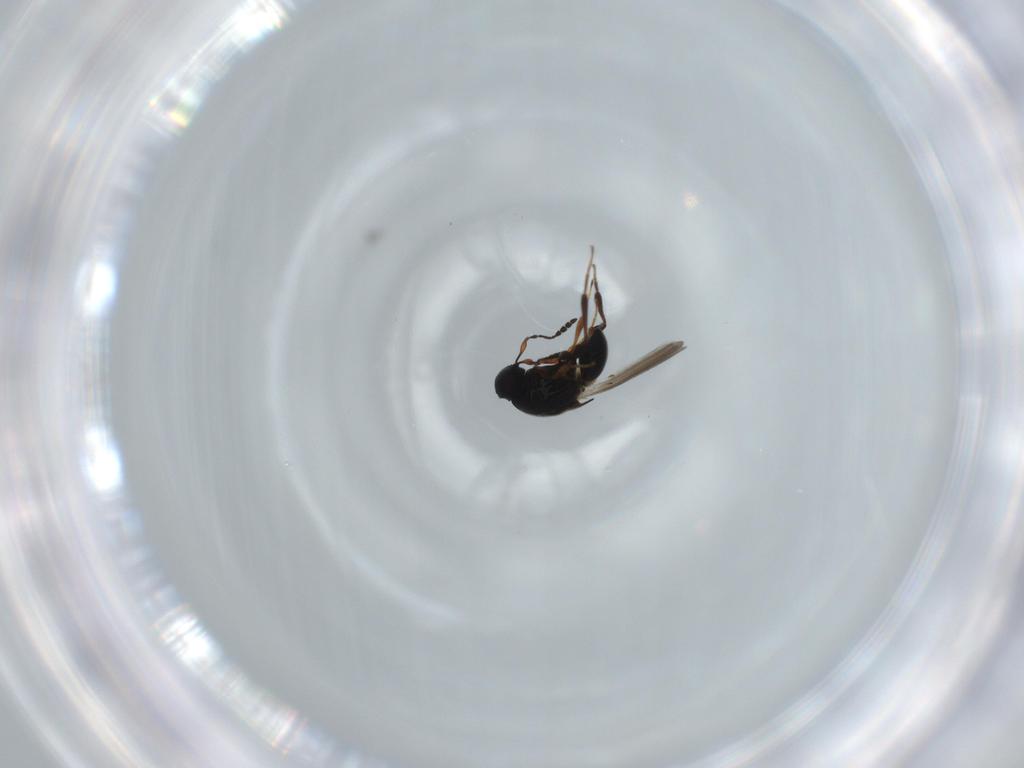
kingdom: Animalia
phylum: Arthropoda
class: Insecta
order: Hymenoptera
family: Platygastridae
